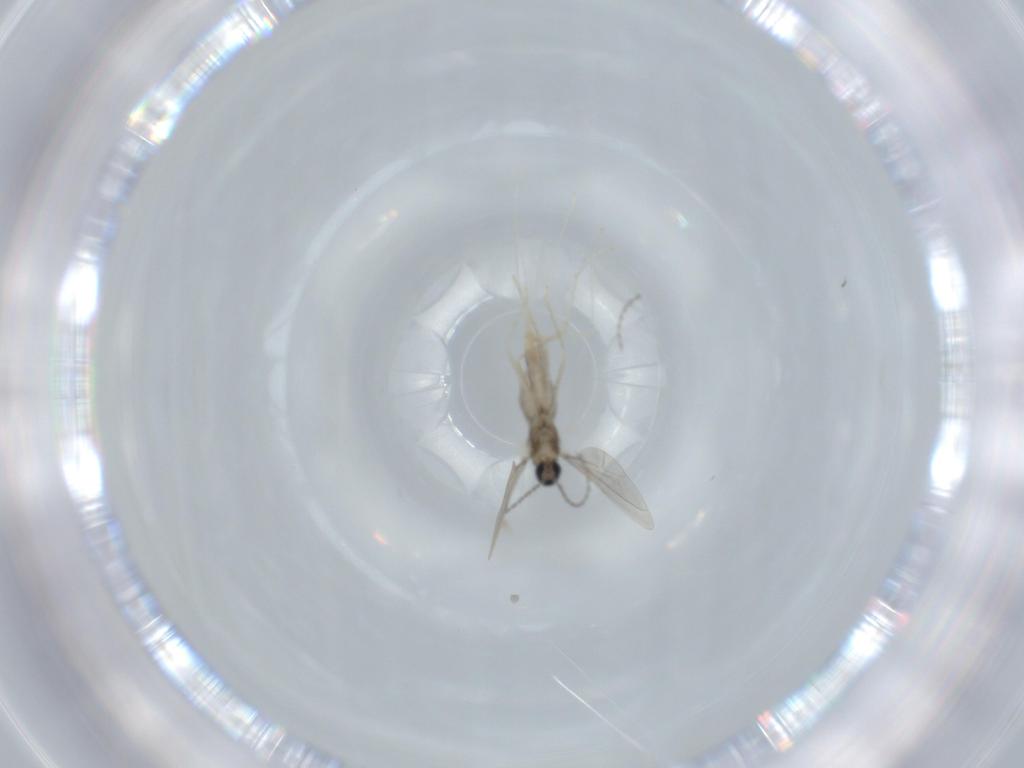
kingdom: Animalia
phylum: Arthropoda
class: Insecta
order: Diptera
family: Cecidomyiidae
